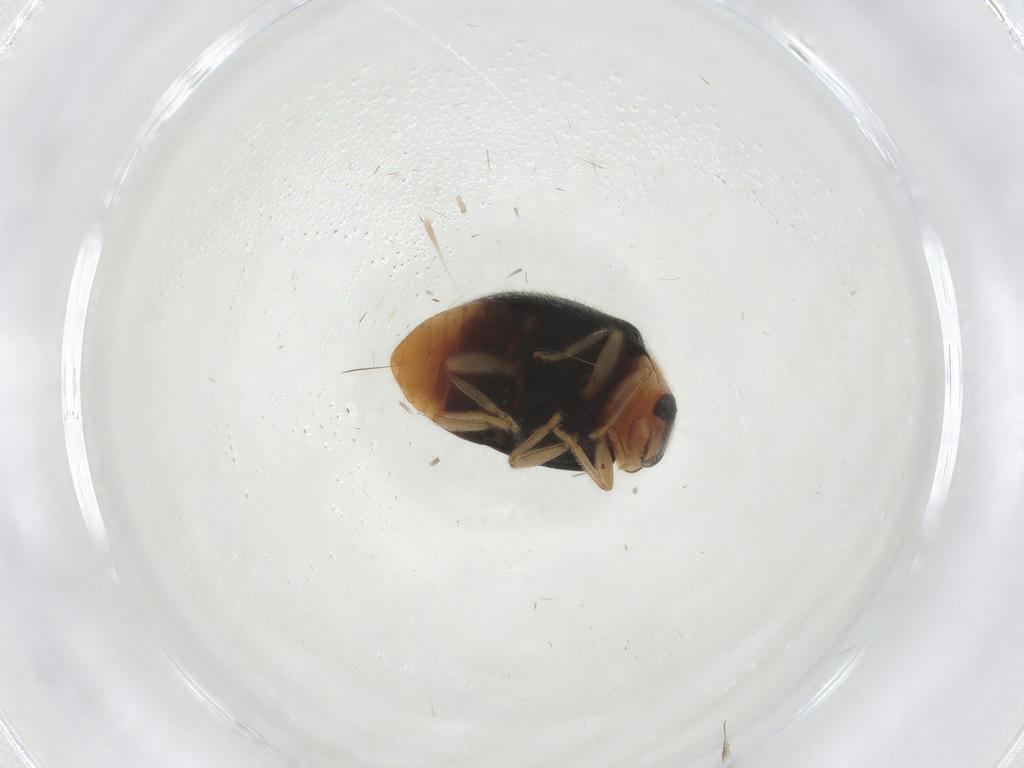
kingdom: Animalia
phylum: Arthropoda
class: Insecta
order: Coleoptera
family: Coccinellidae
